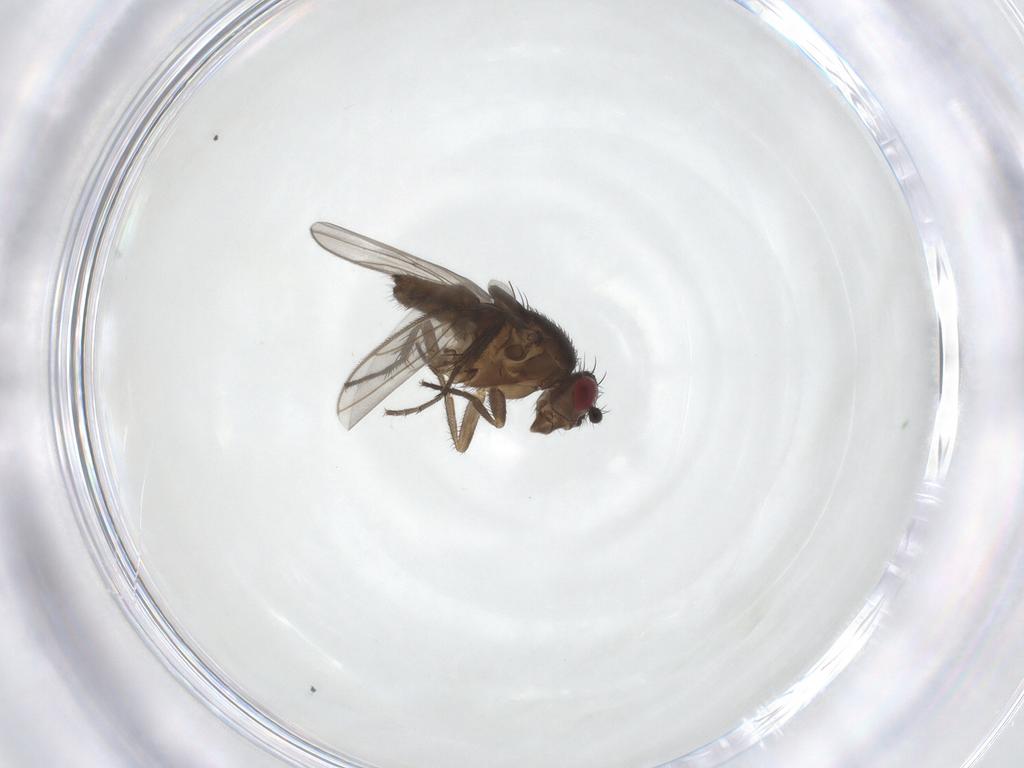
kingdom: Animalia
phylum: Arthropoda
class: Insecta
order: Diptera
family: Sphaeroceridae
